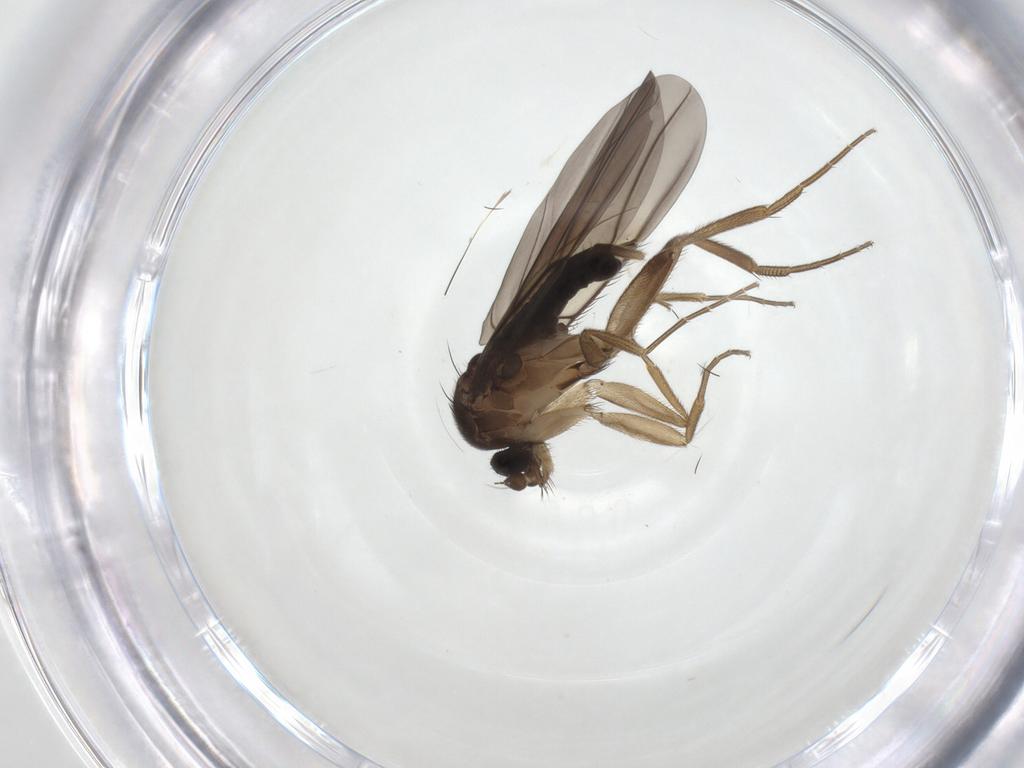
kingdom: Animalia
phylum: Arthropoda
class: Insecta
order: Diptera
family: Phoridae
